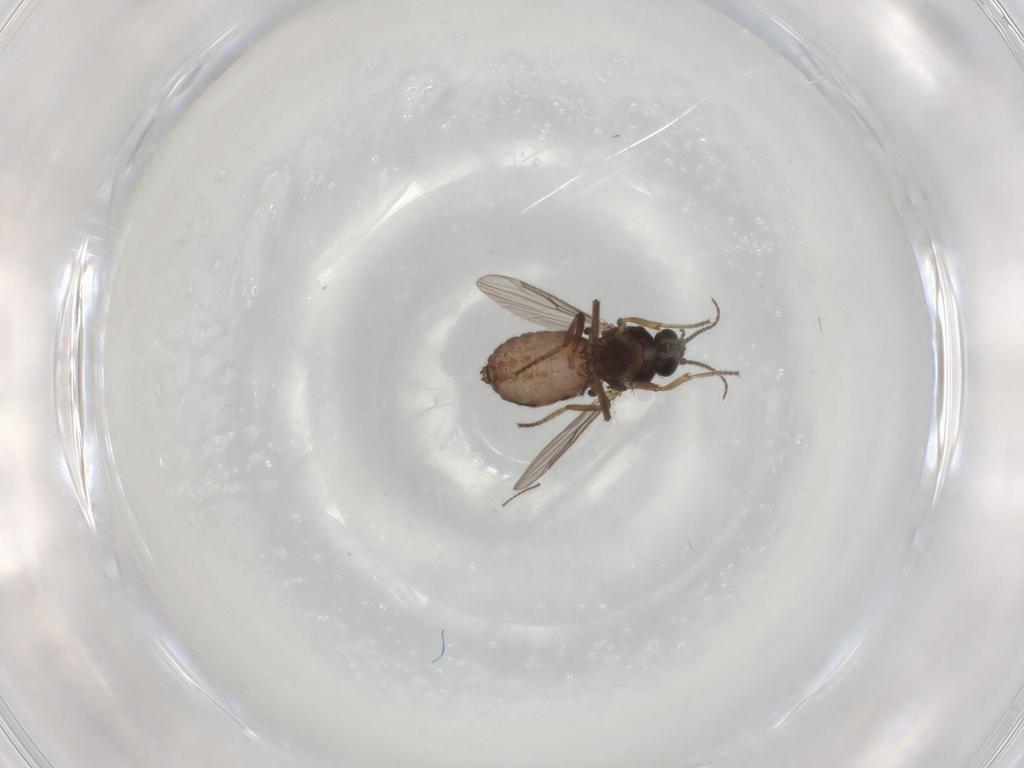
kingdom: Animalia
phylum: Arthropoda
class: Insecta
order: Diptera
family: Ceratopogonidae
